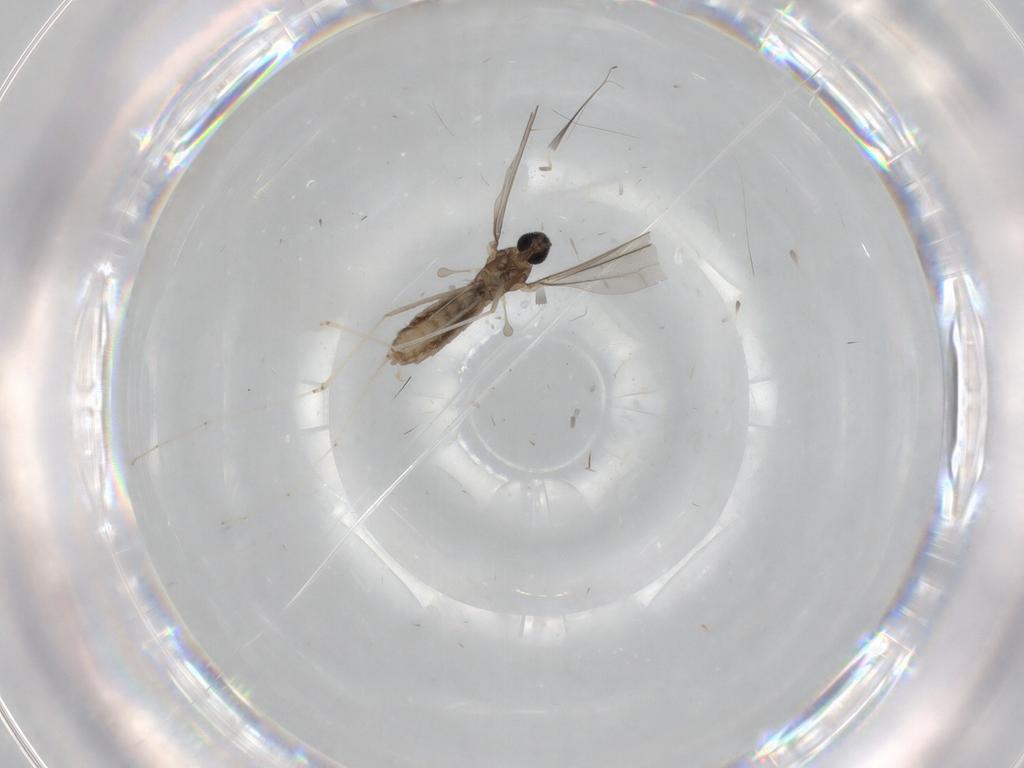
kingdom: Animalia
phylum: Arthropoda
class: Insecta
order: Diptera
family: Cecidomyiidae
